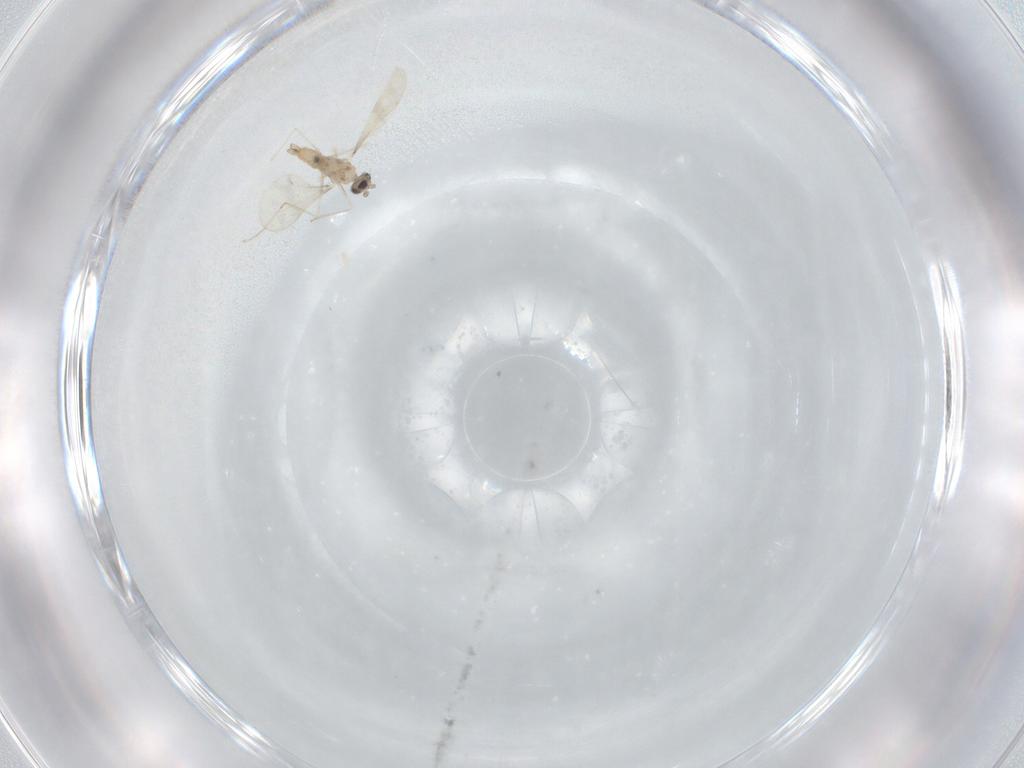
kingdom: Animalia
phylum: Arthropoda
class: Insecta
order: Diptera
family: Cecidomyiidae
